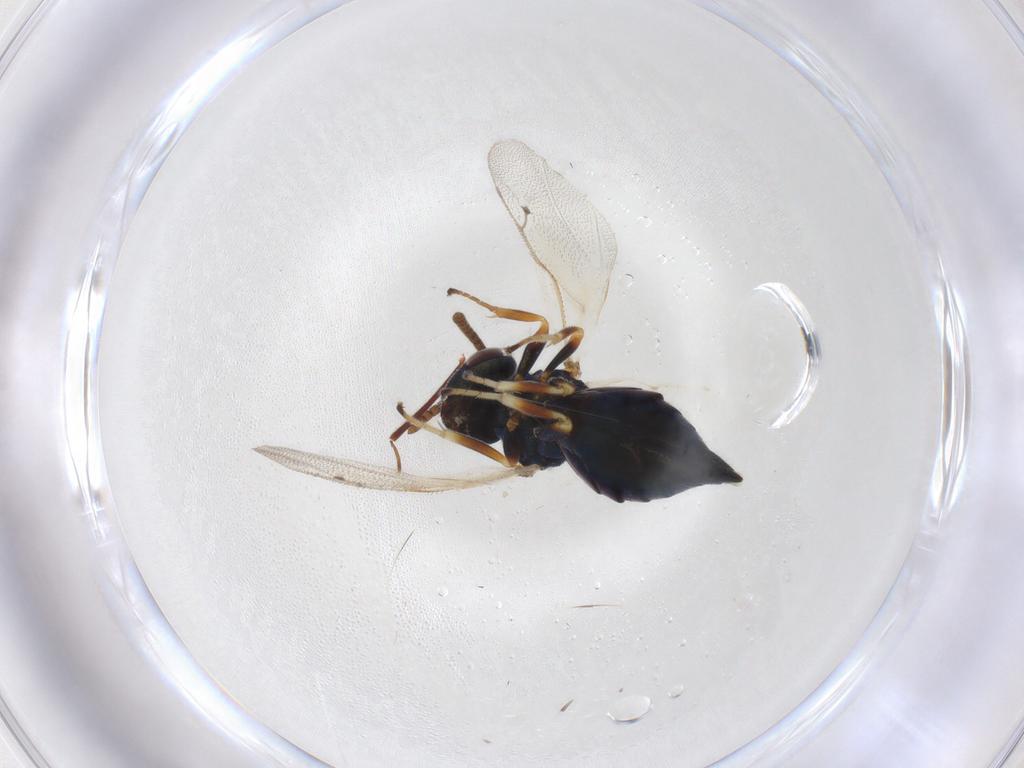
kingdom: Animalia
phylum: Arthropoda
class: Insecta
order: Hymenoptera
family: Pteromalidae
